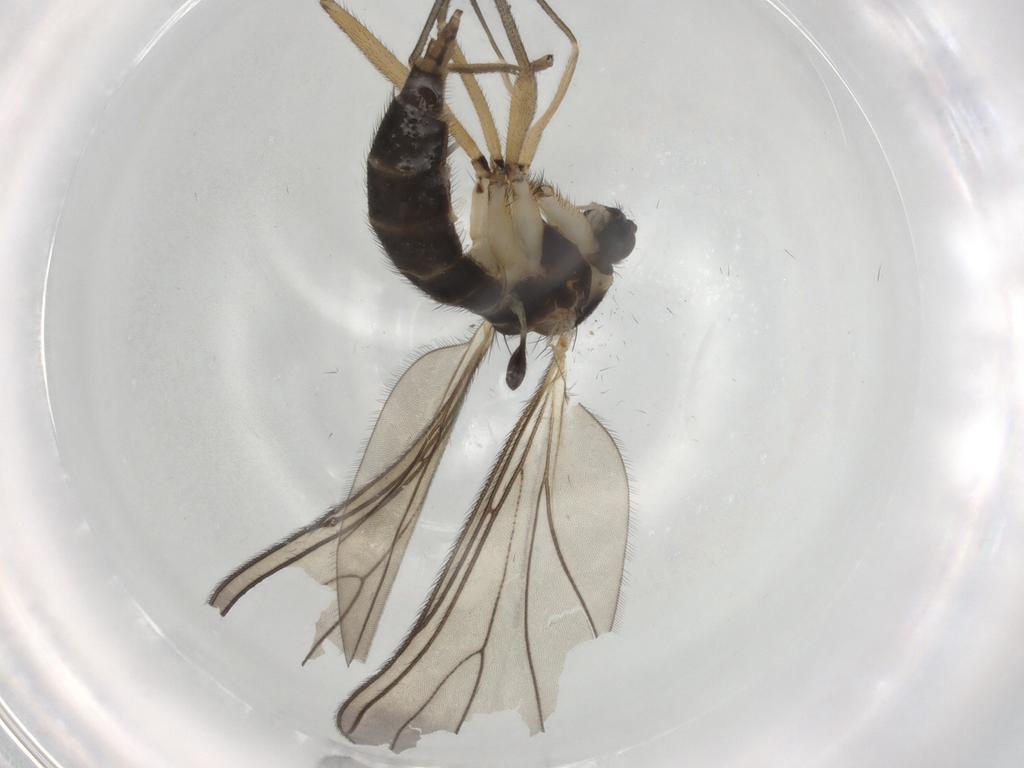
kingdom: Animalia
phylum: Arthropoda
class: Insecta
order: Diptera
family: Sciaridae
